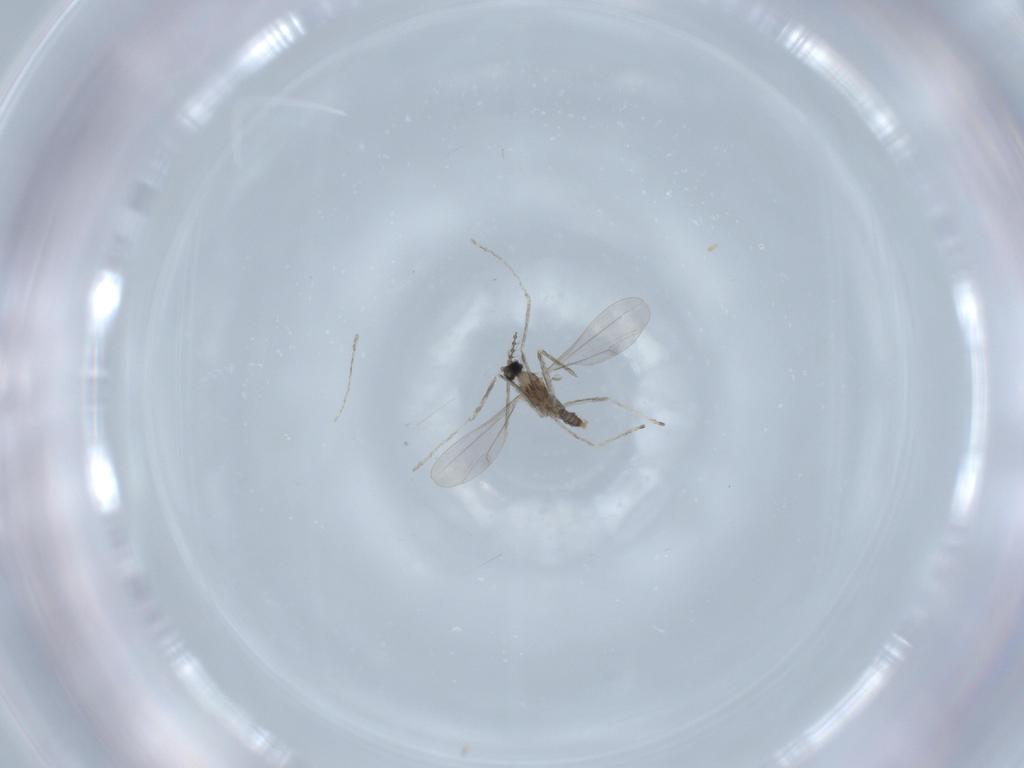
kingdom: Animalia
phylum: Arthropoda
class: Insecta
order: Diptera
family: Cecidomyiidae
